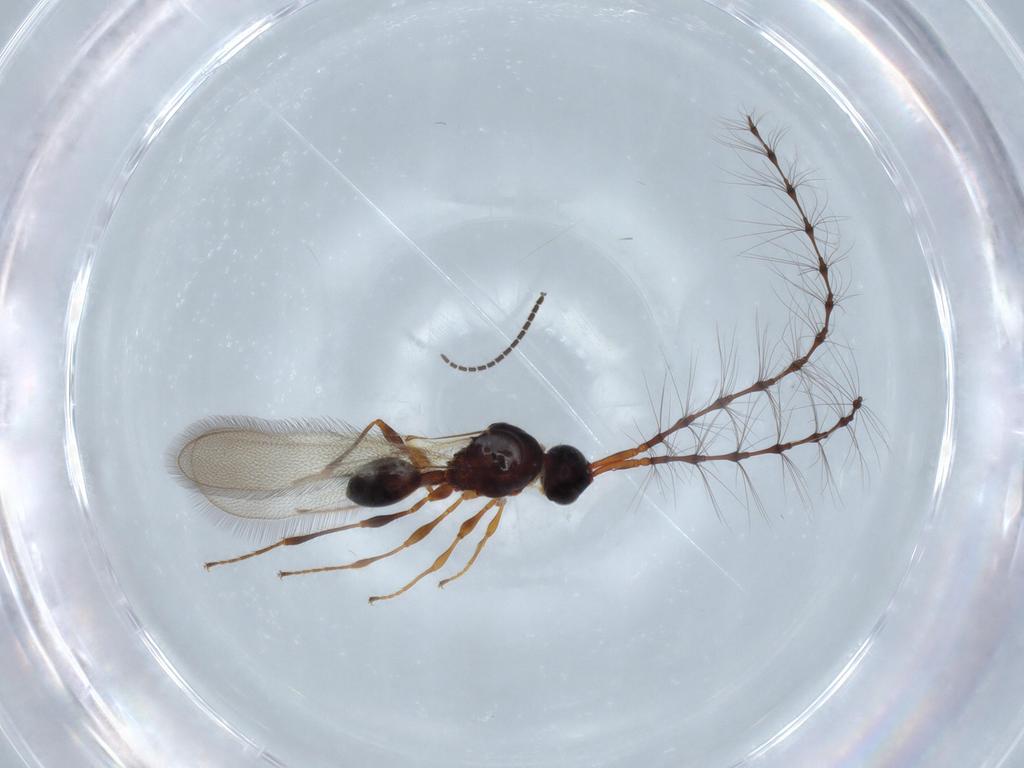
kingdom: Animalia
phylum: Arthropoda
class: Insecta
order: Hymenoptera
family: Diapriidae
